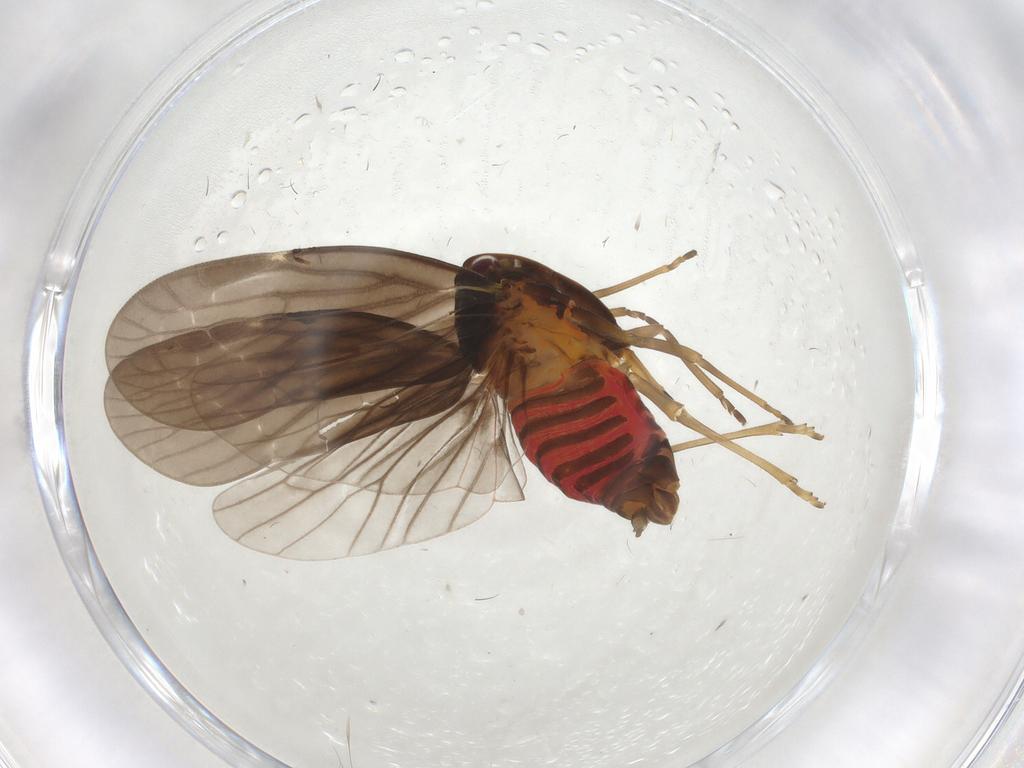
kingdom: Animalia
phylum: Arthropoda
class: Insecta
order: Hemiptera
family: Derbidae
